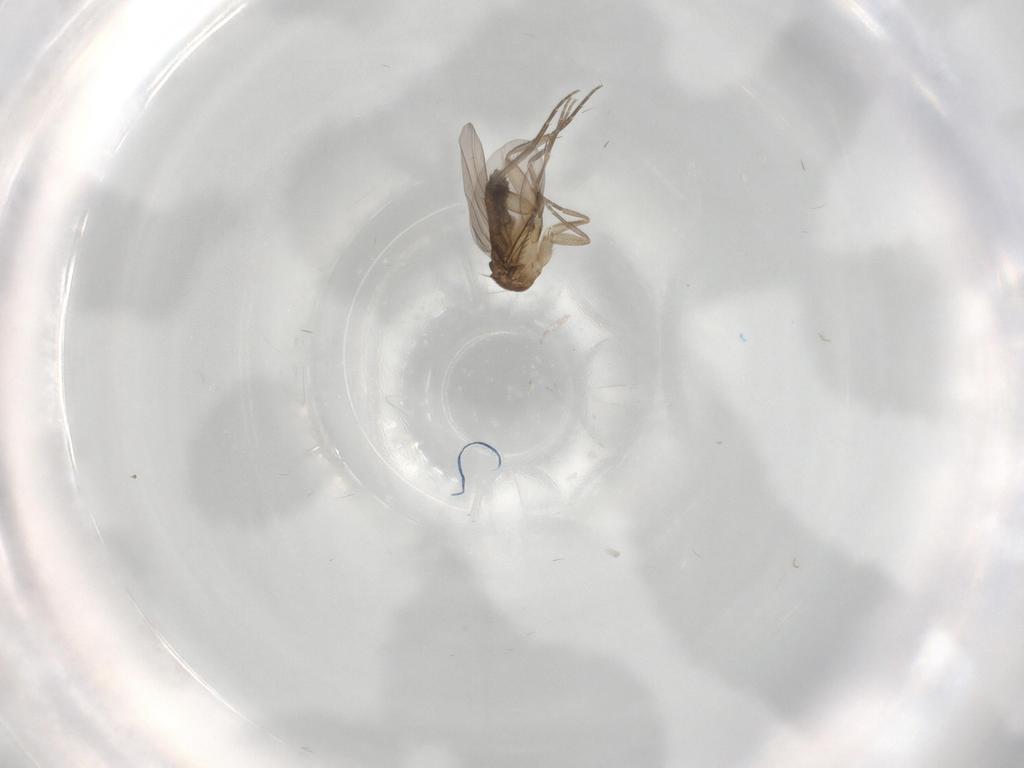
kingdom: Animalia
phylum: Arthropoda
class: Insecta
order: Diptera
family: Phoridae
